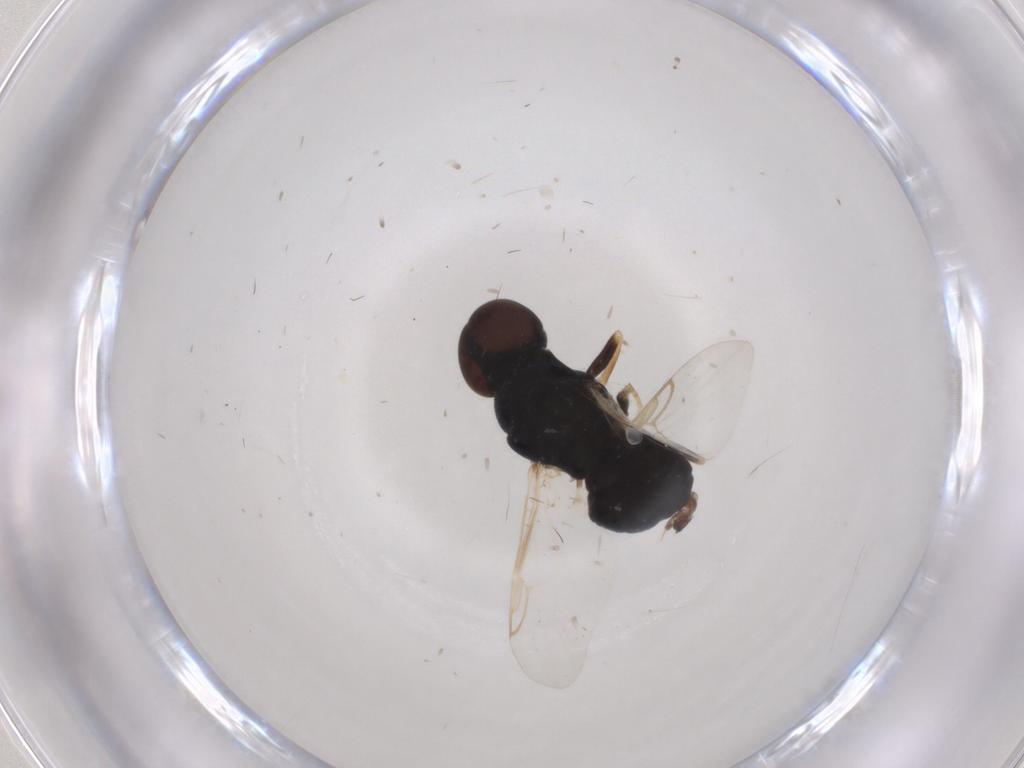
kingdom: Animalia
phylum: Arthropoda
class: Insecta
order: Diptera
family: Stratiomyidae
